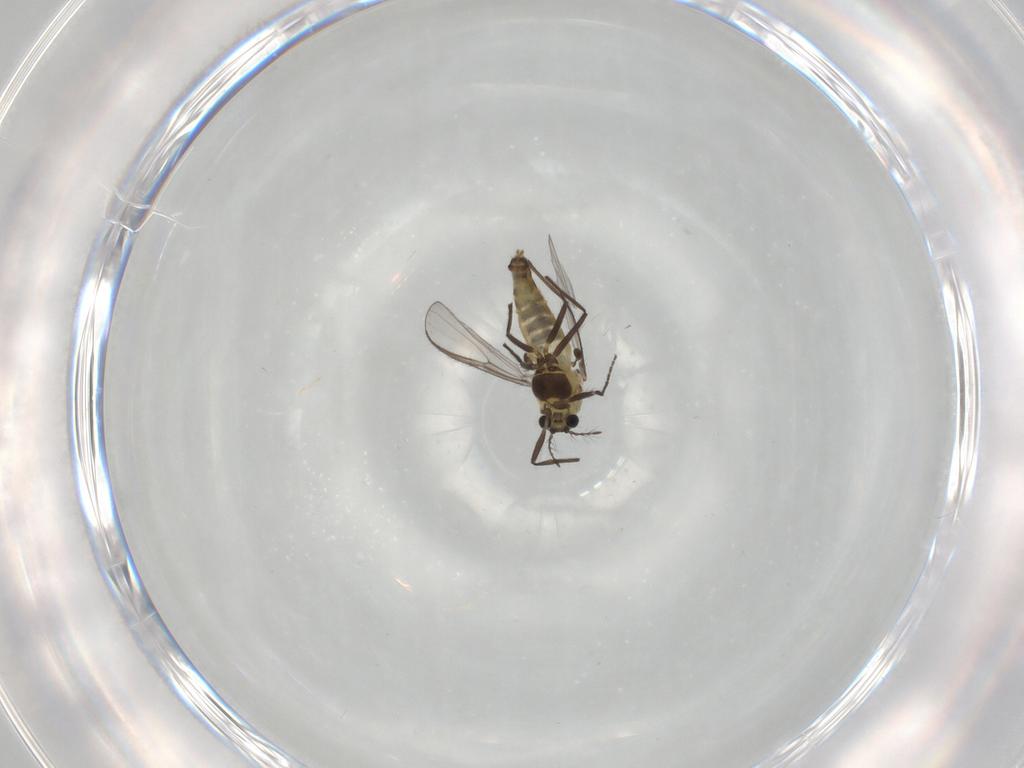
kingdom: Animalia
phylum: Arthropoda
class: Insecta
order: Diptera
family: Chironomidae
